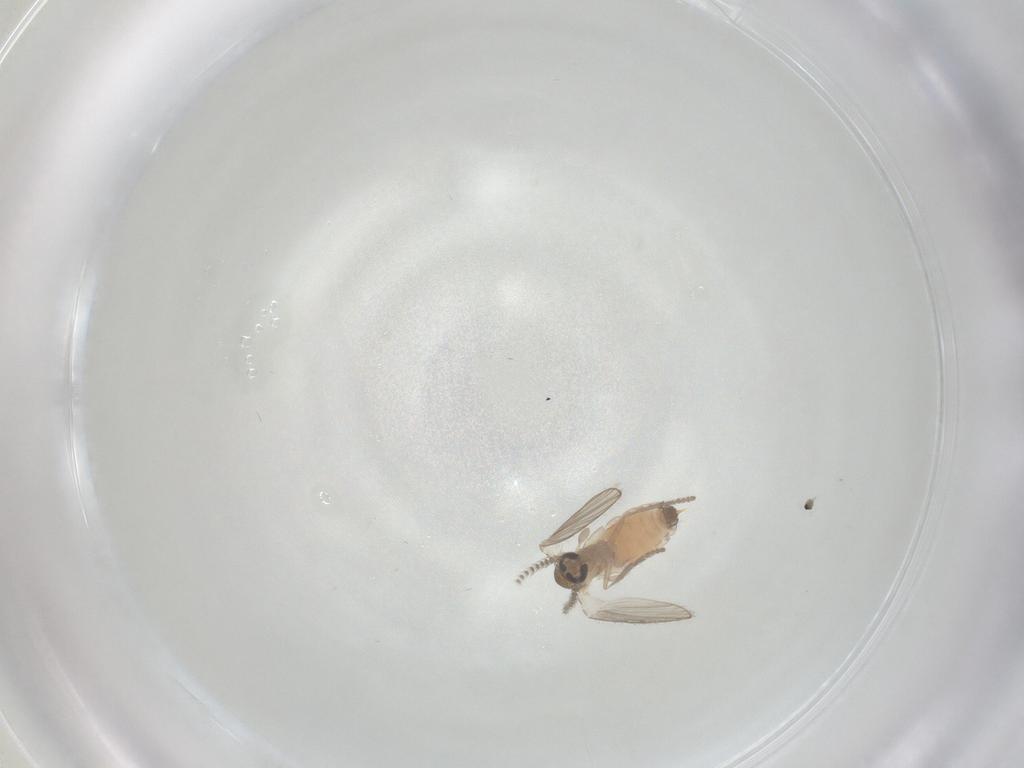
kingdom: Animalia
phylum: Arthropoda
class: Insecta
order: Diptera
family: Psychodidae
